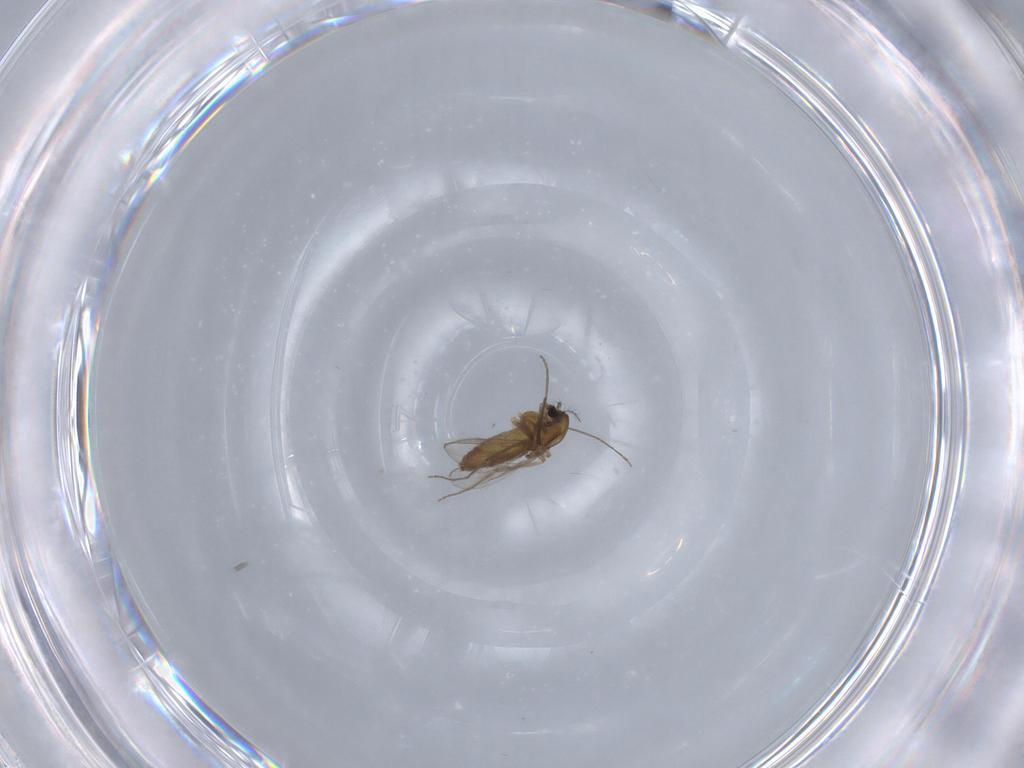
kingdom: Animalia
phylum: Arthropoda
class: Insecta
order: Diptera
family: Chironomidae
